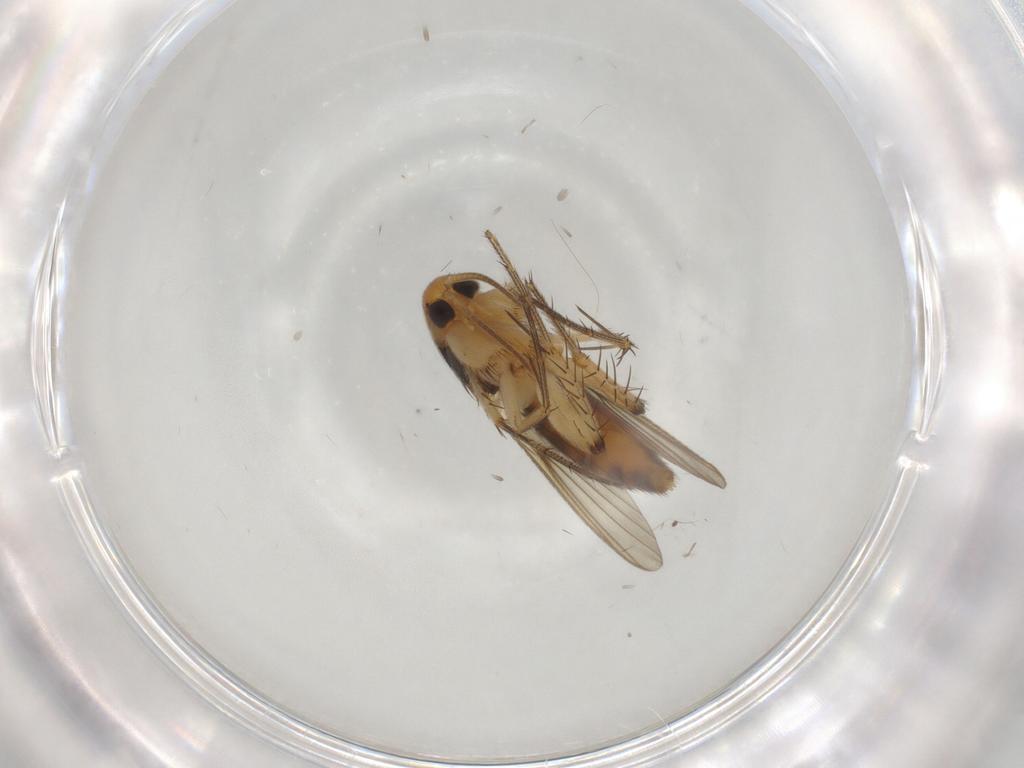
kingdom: Animalia
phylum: Arthropoda
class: Insecta
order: Diptera
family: Mycetophilidae
